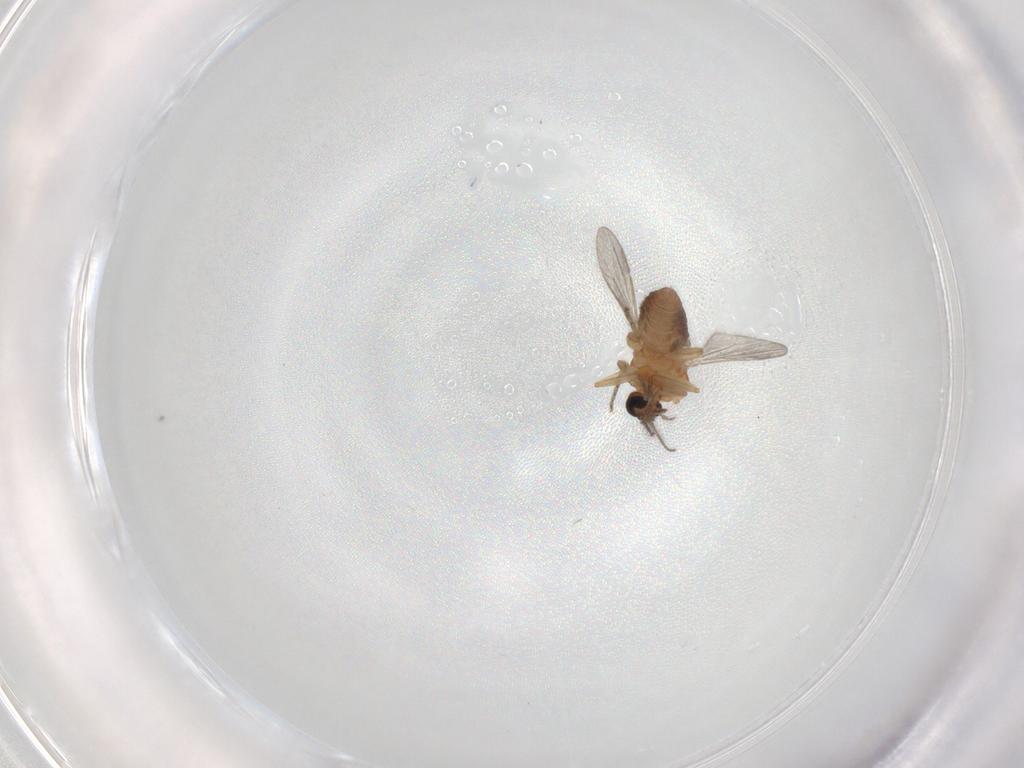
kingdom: Animalia
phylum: Arthropoda
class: Insecta
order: Diptera
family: Ceratopogonidae
